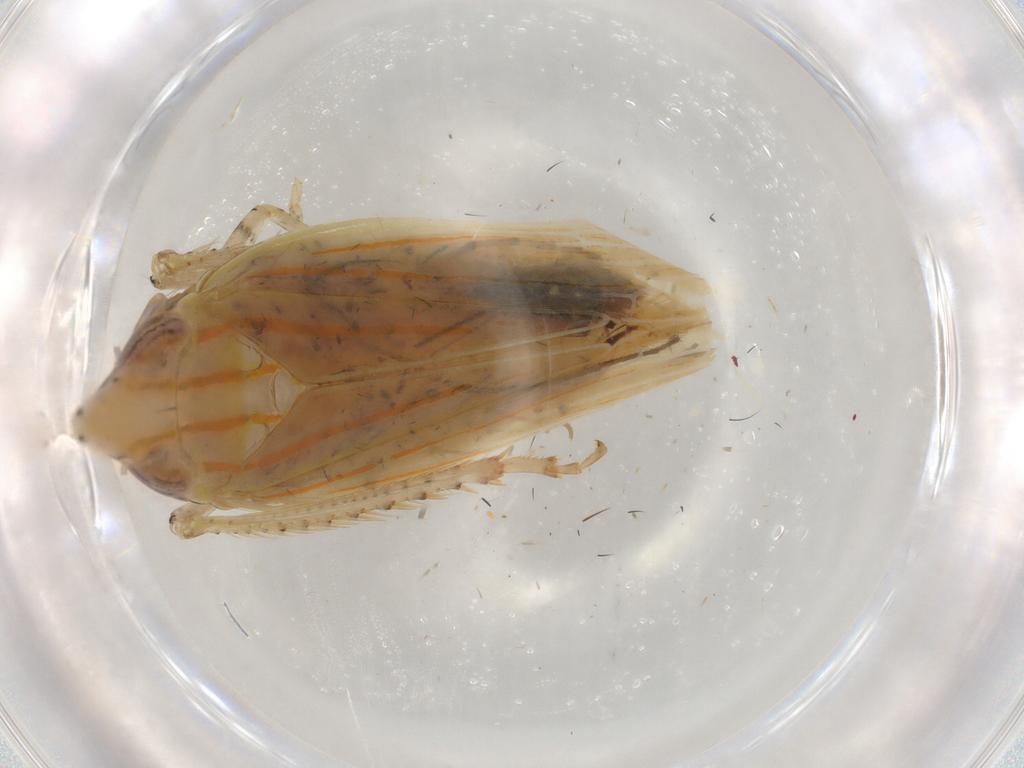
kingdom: Animalia
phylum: Arthropoda
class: Insecta
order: Hemiptera
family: Cicadellidae
